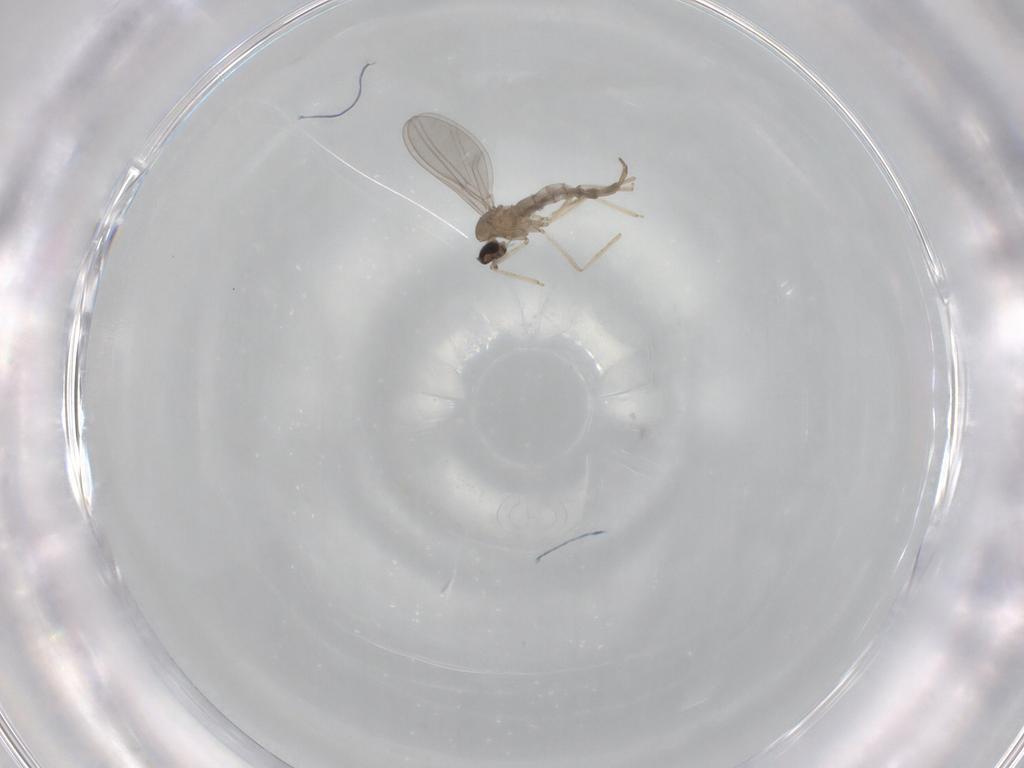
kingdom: Animalia
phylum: Arthropoda
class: Insecta
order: Diptera
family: Cecidomyiidae
